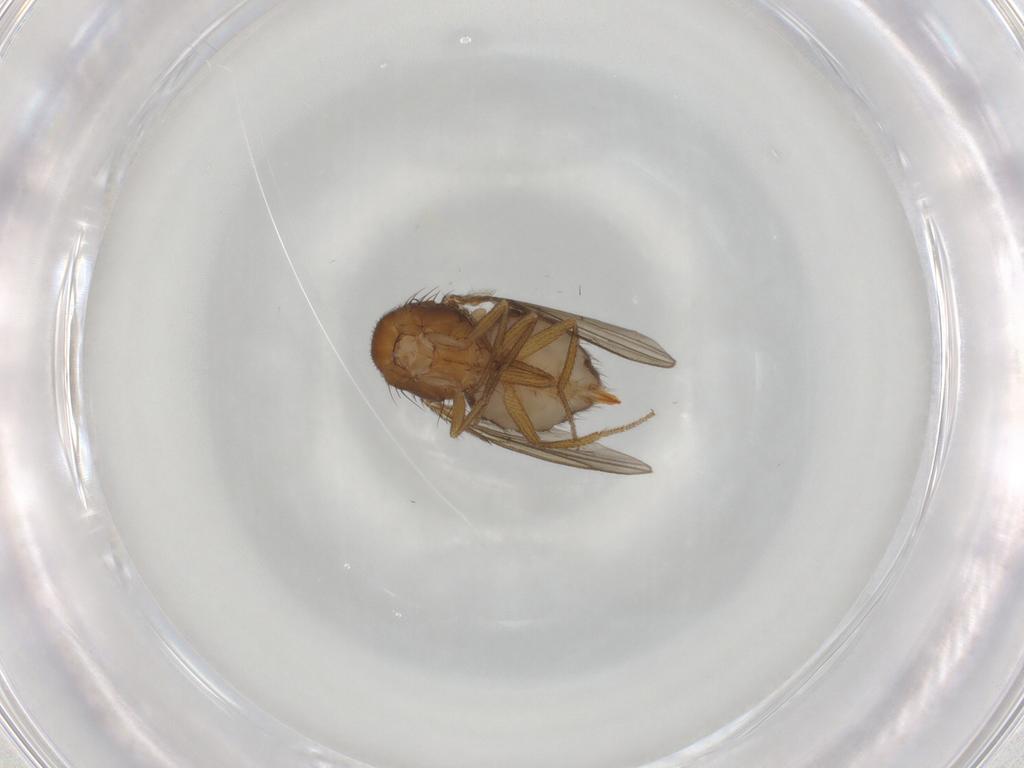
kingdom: Animalia
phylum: Arthropoda
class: Insecta
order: Diptera
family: Drosophilidae
